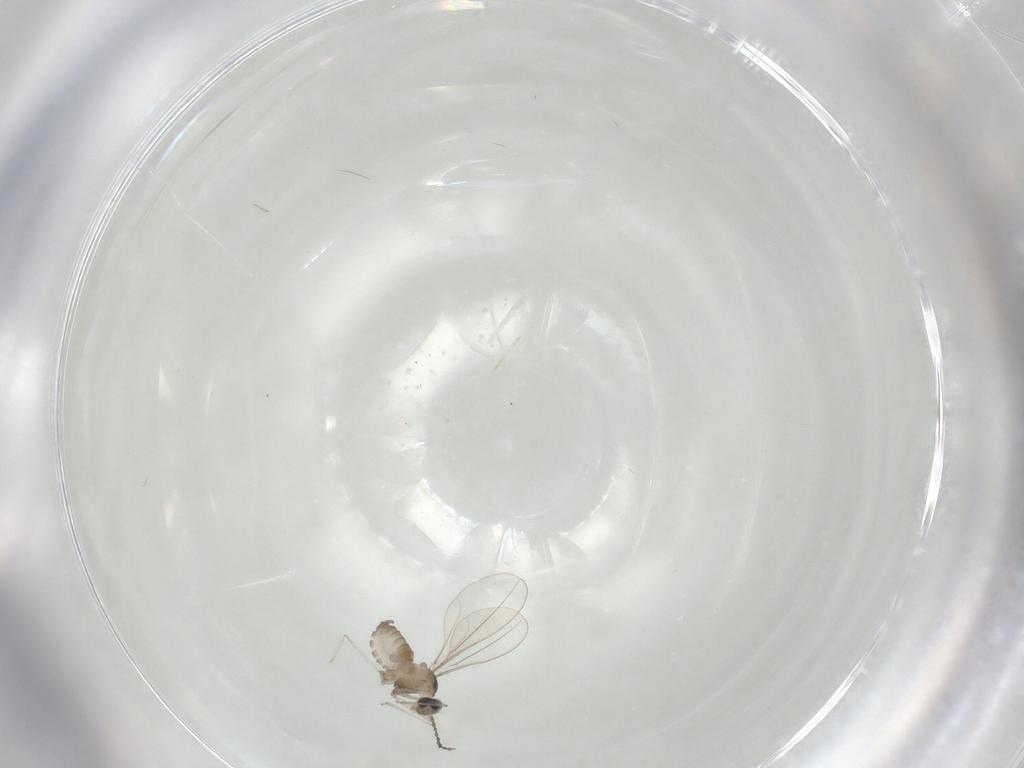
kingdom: Animalia
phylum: Arthropoda
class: Insecta
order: Diptera
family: Cecidomyiidae
